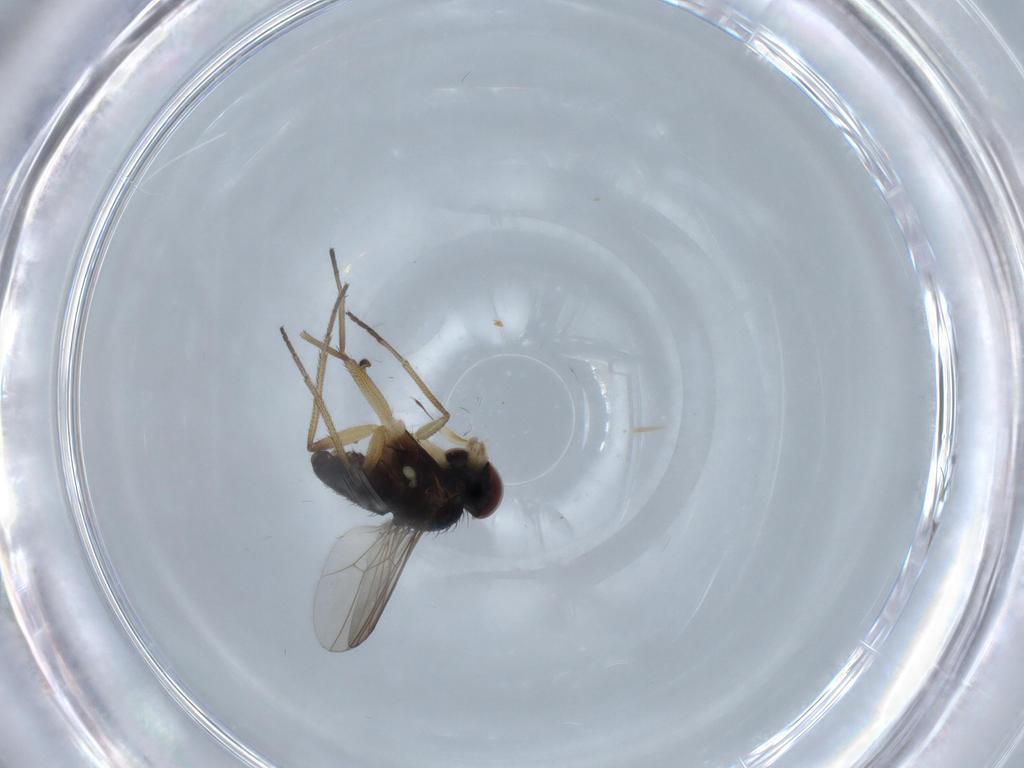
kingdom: Animalia
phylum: Arthropoda
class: Insecta
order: Diptera
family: Dolichopodidae
